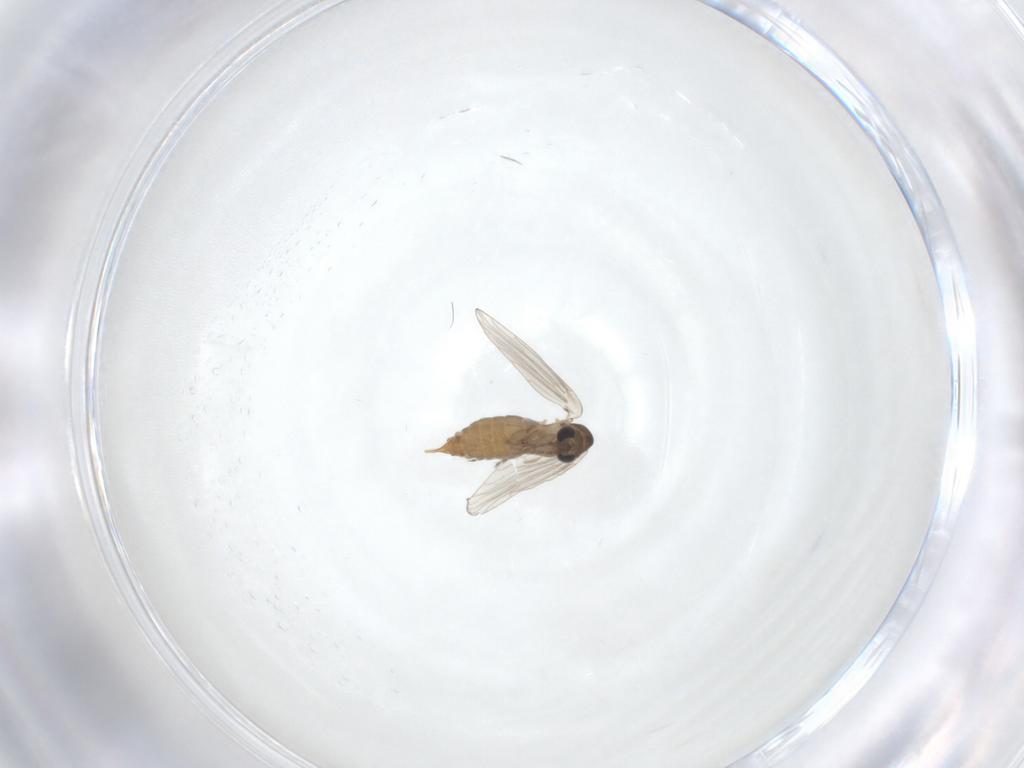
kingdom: Animalia
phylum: Arthropoda
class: Insecta
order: Diptera
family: Psychodidae
